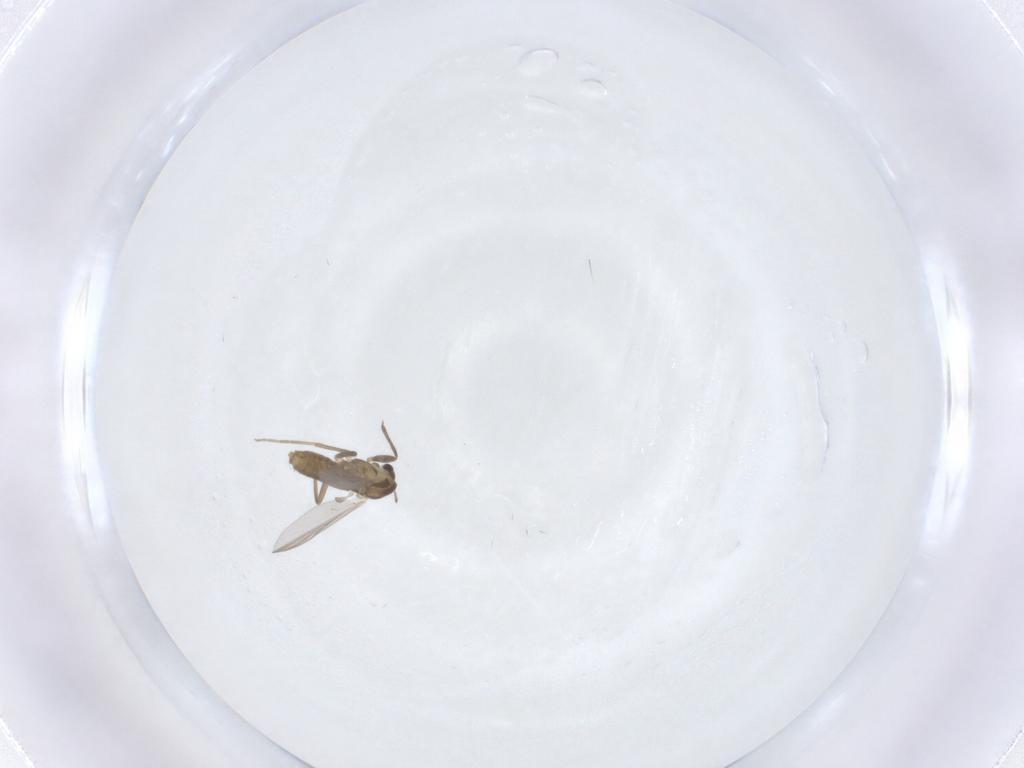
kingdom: Animalia
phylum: Arthropoda
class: Insecta
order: Diptera
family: Chironomidae
